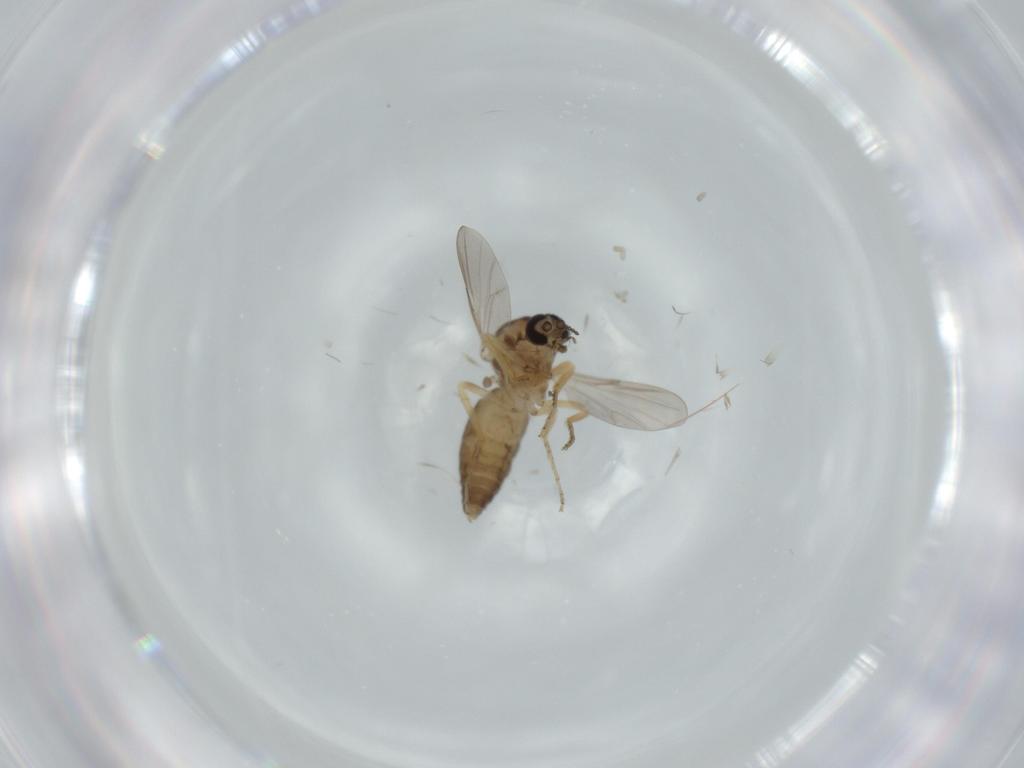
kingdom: Animalia
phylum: Arthropoda
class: Insecta
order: Diptera
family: Ceratopogonidae
